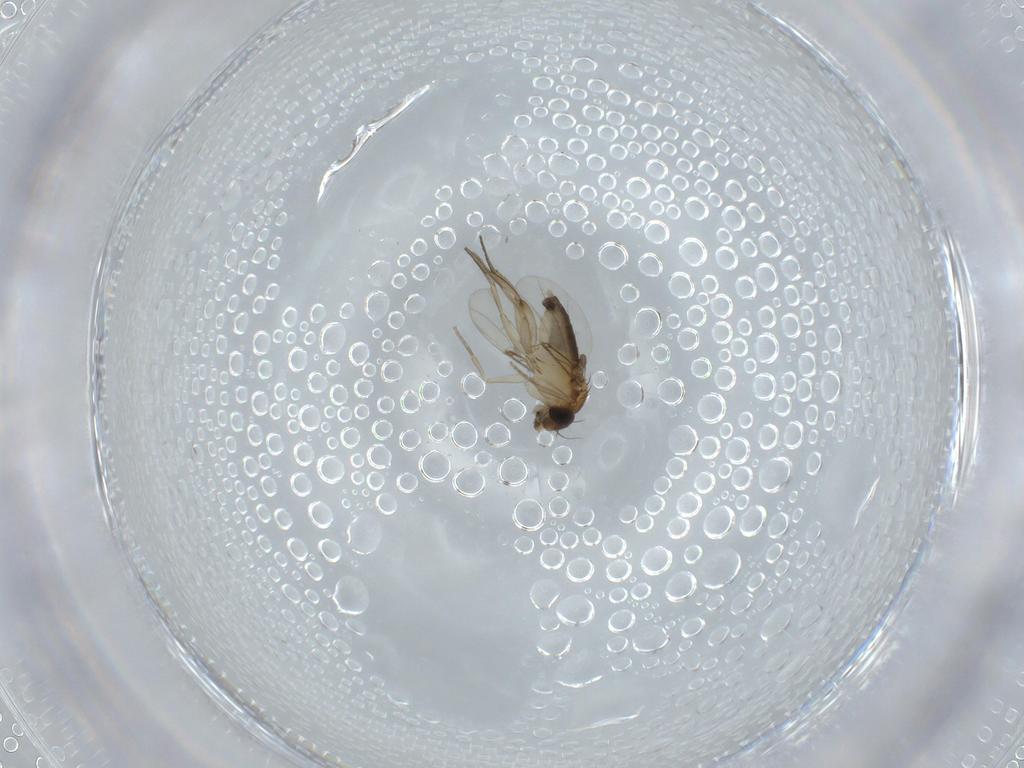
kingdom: Animalia
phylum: Arthropoda
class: Insecta
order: Diptera
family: Phoridae
